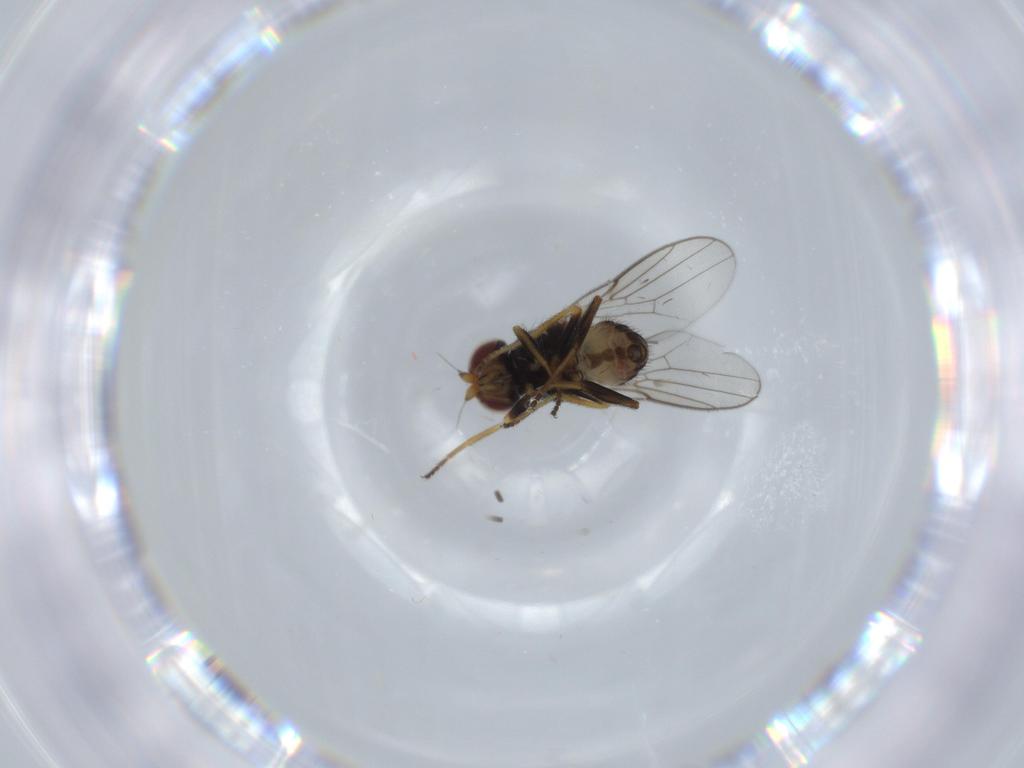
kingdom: Animalia
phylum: Arthropoda
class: Insecta
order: Diptera
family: Chloropidae
